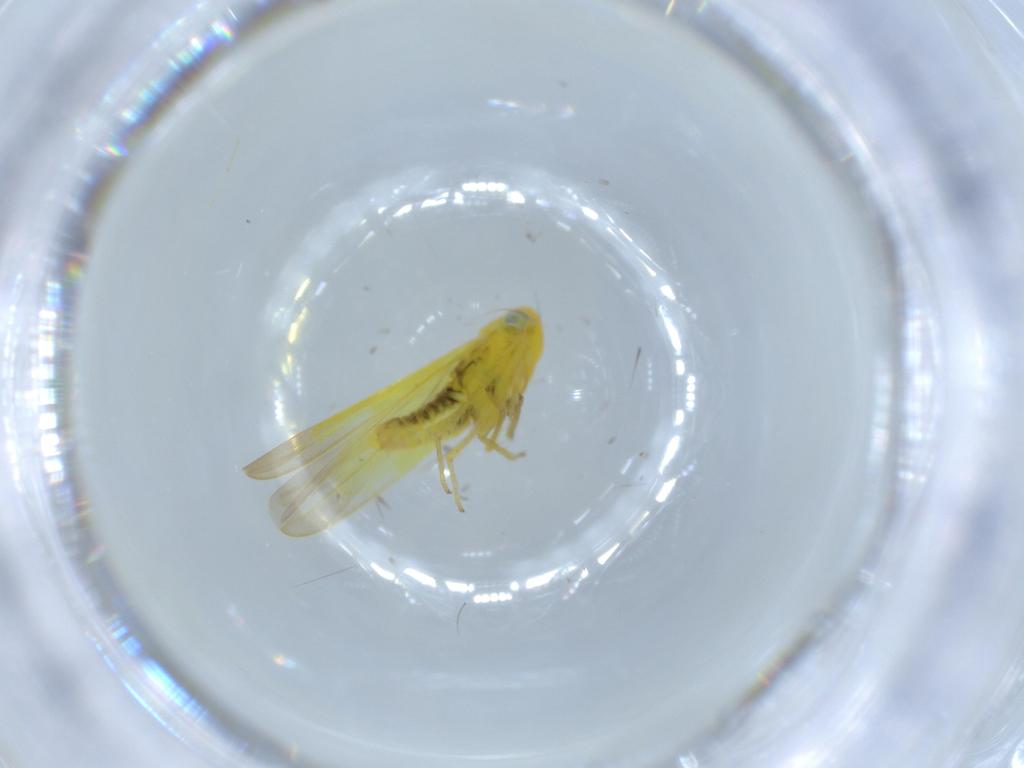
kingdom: Animalia
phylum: Arthropoda
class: Insecta
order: Hemiptera
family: Cicadellidae
